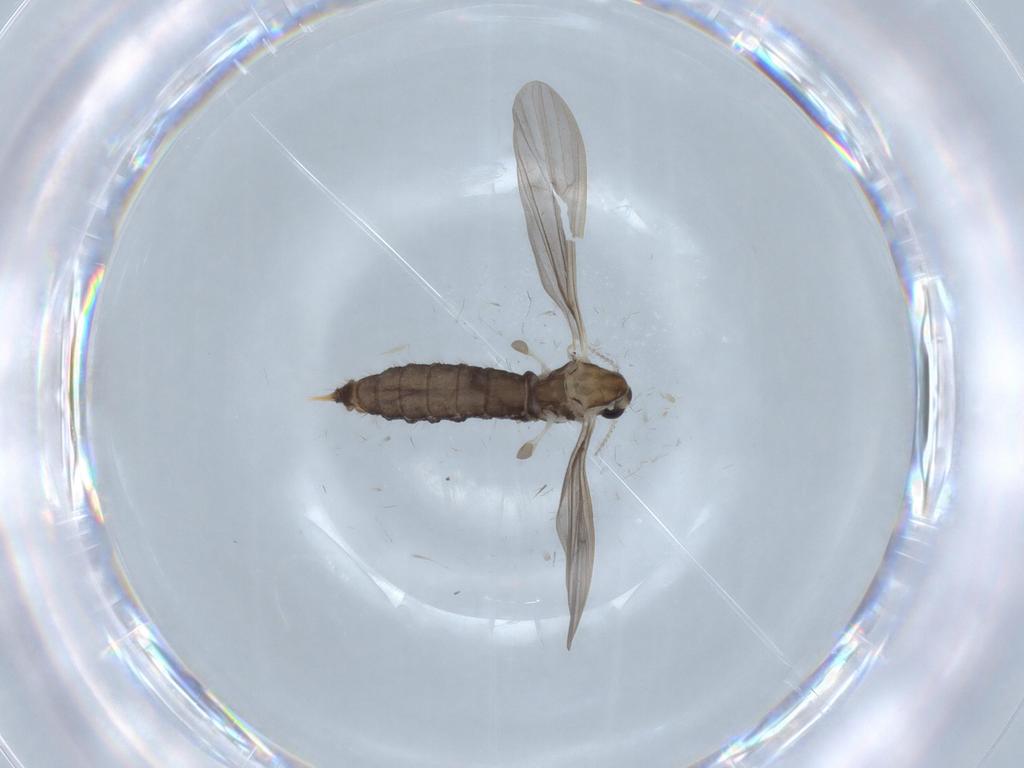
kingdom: Animalia
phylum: Arthropoda
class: Insecta
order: Diptera
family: Limoniidae
